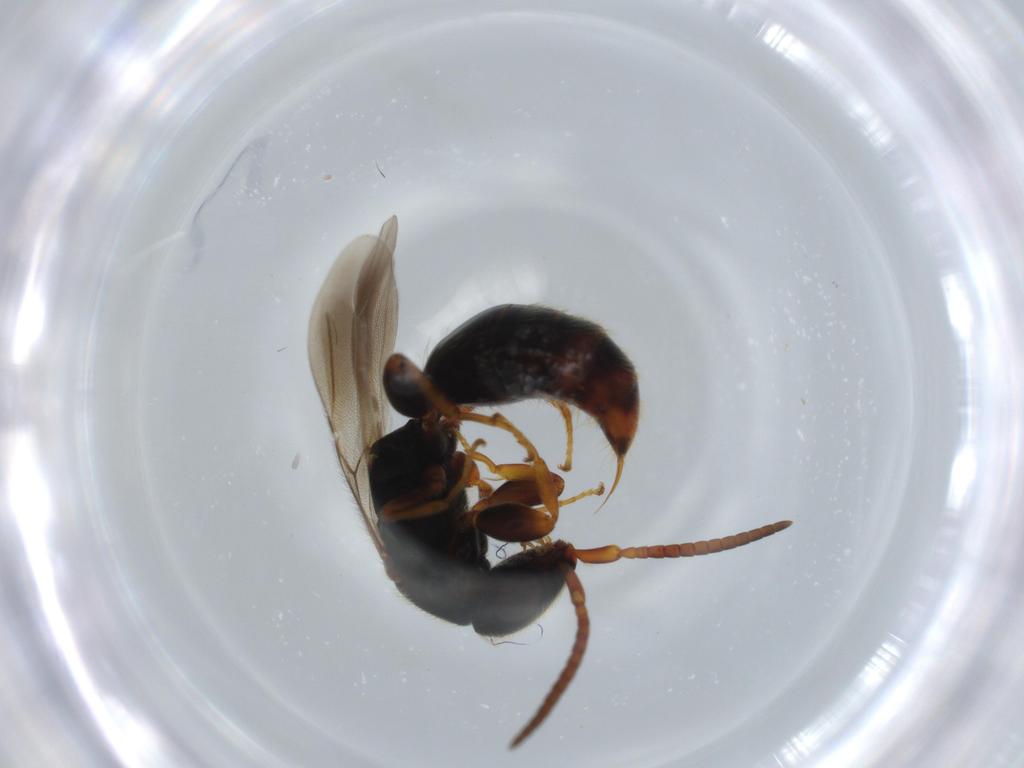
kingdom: Animalia
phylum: Arthropoda
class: Insecta
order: Hymenoptera
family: Bethylidae
